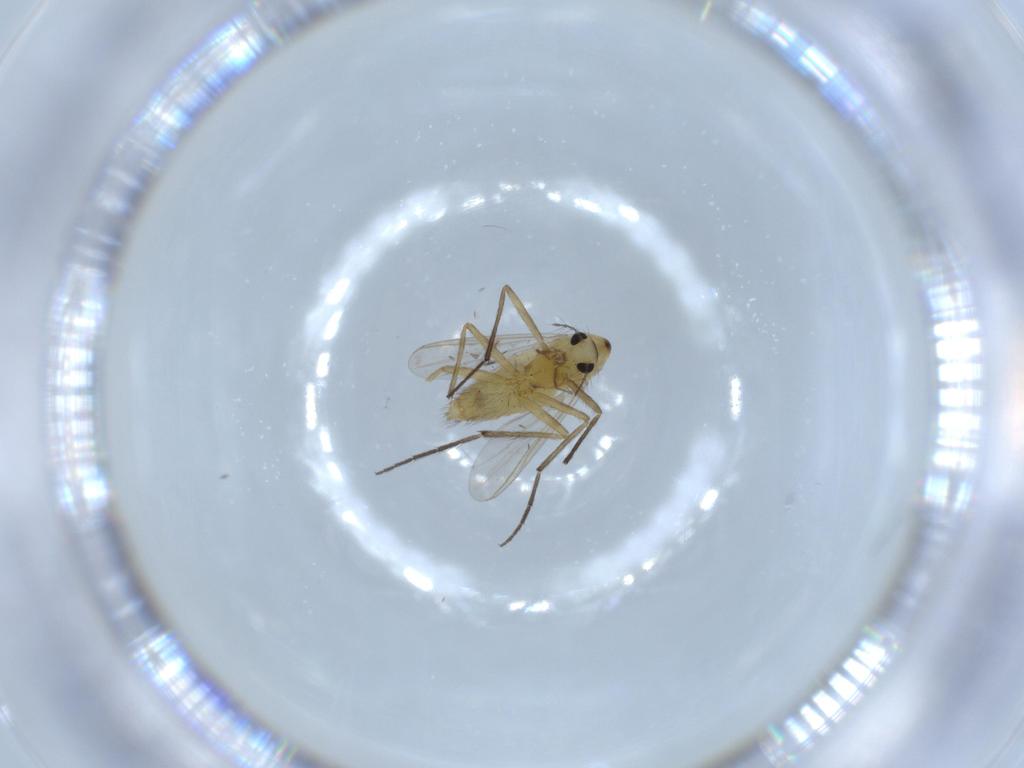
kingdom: Animalia
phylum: Arthropoda
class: Insecta
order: Diptera
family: Chironomidae
